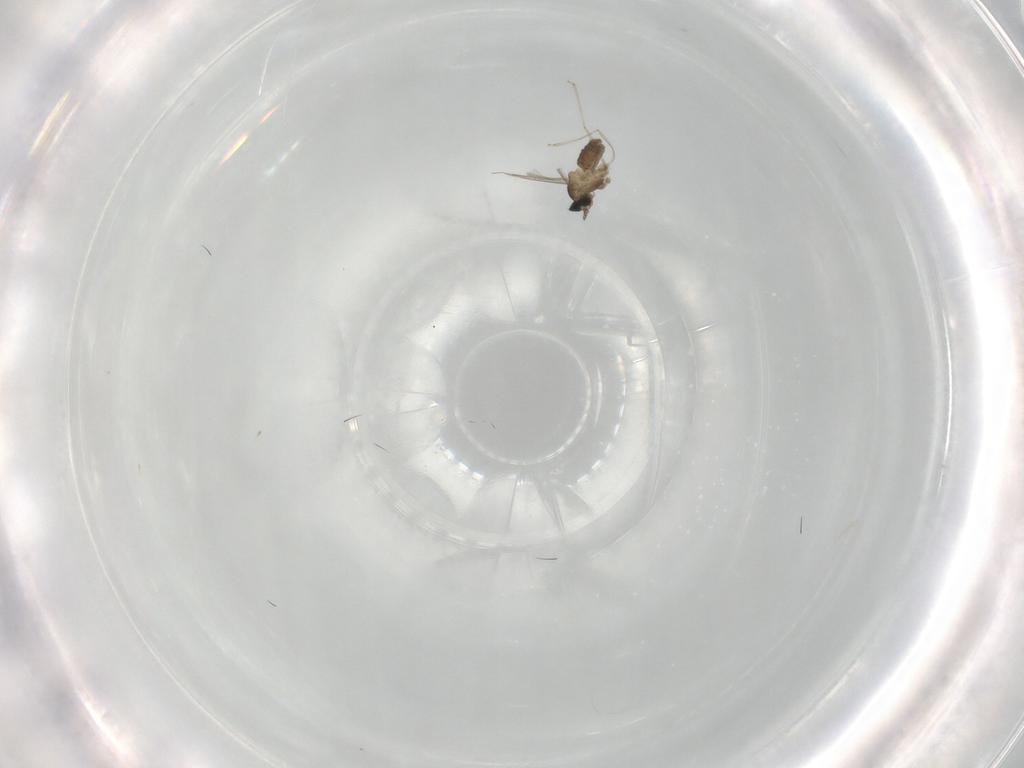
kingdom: Animalia
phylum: Arthropoda
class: Insecta
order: Diptera
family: Cecidomyiidae
